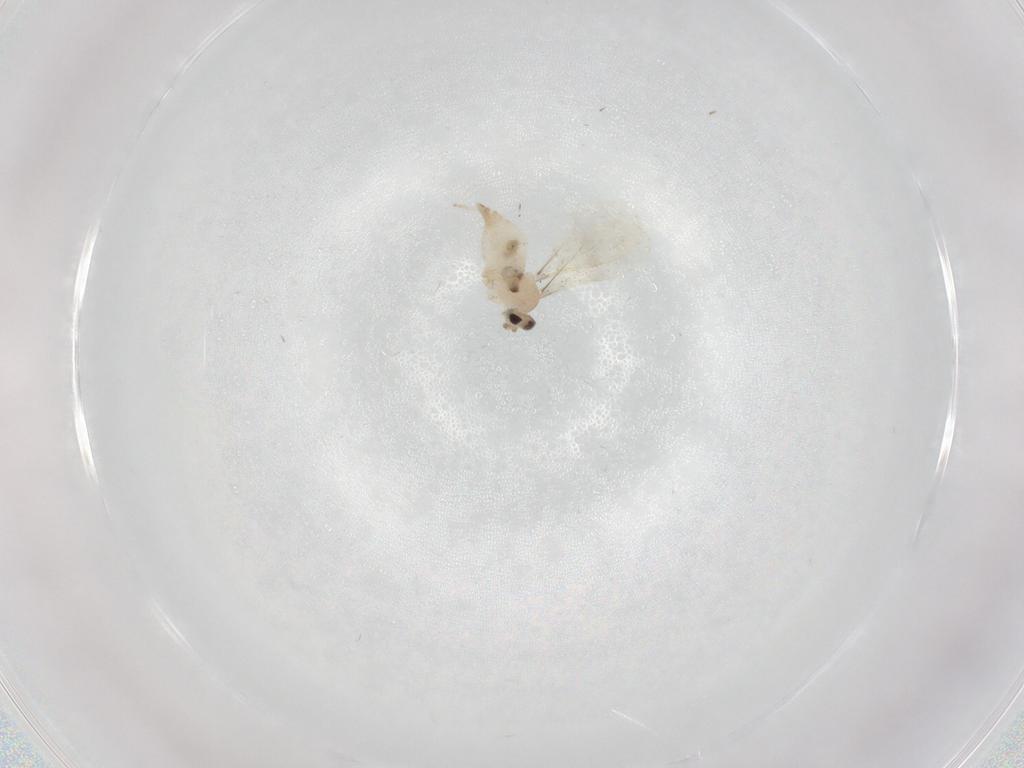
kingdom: Animalia
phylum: Arthropoda
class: Insecta
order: Diptera
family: Cecidomyiidae
